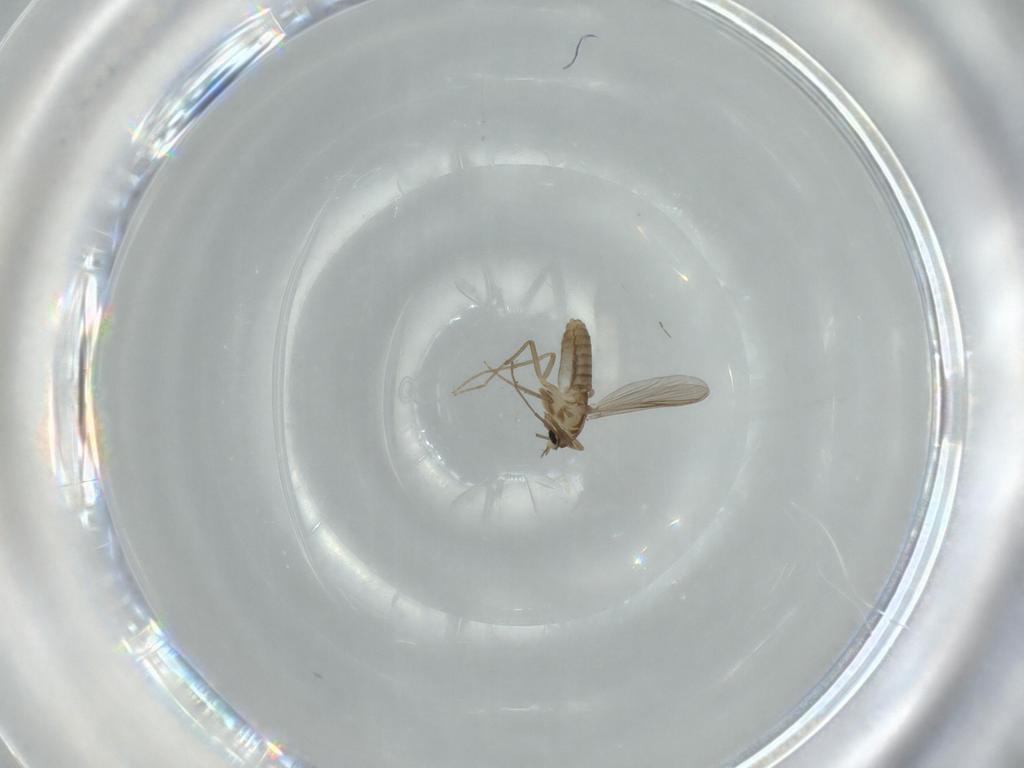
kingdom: Animalia
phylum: Arthropoda
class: Insecta
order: Diptera
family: Chironomidae
